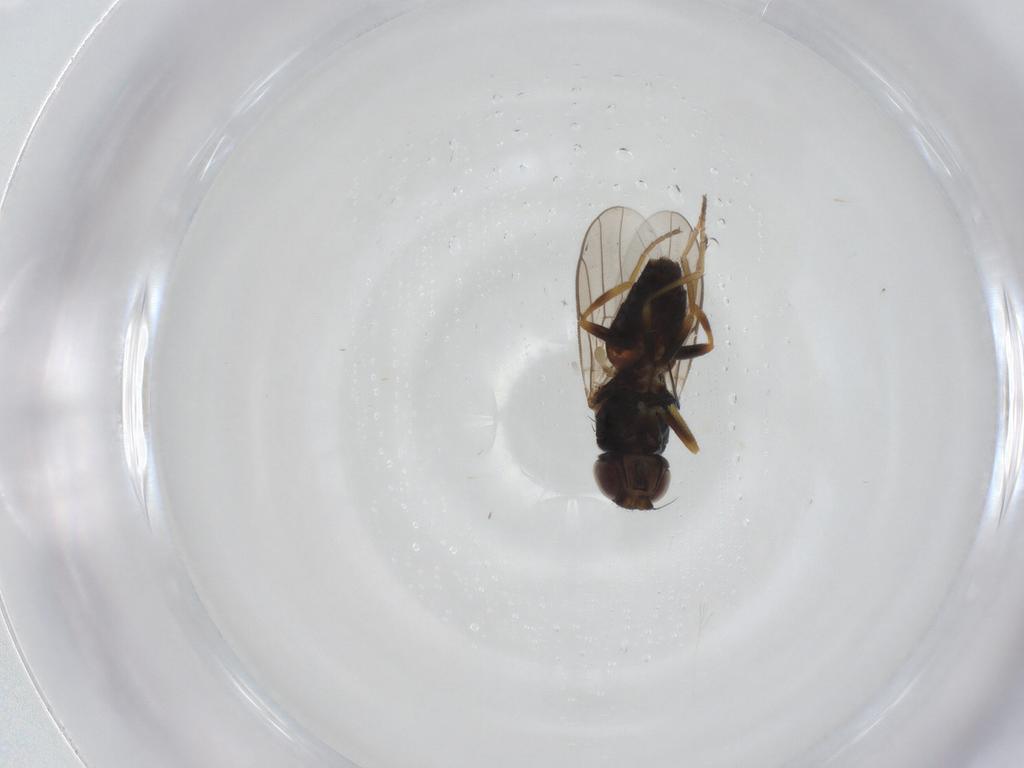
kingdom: Animalia
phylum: Arthropoda
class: Insecta
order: Diptera
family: Chloropidae
